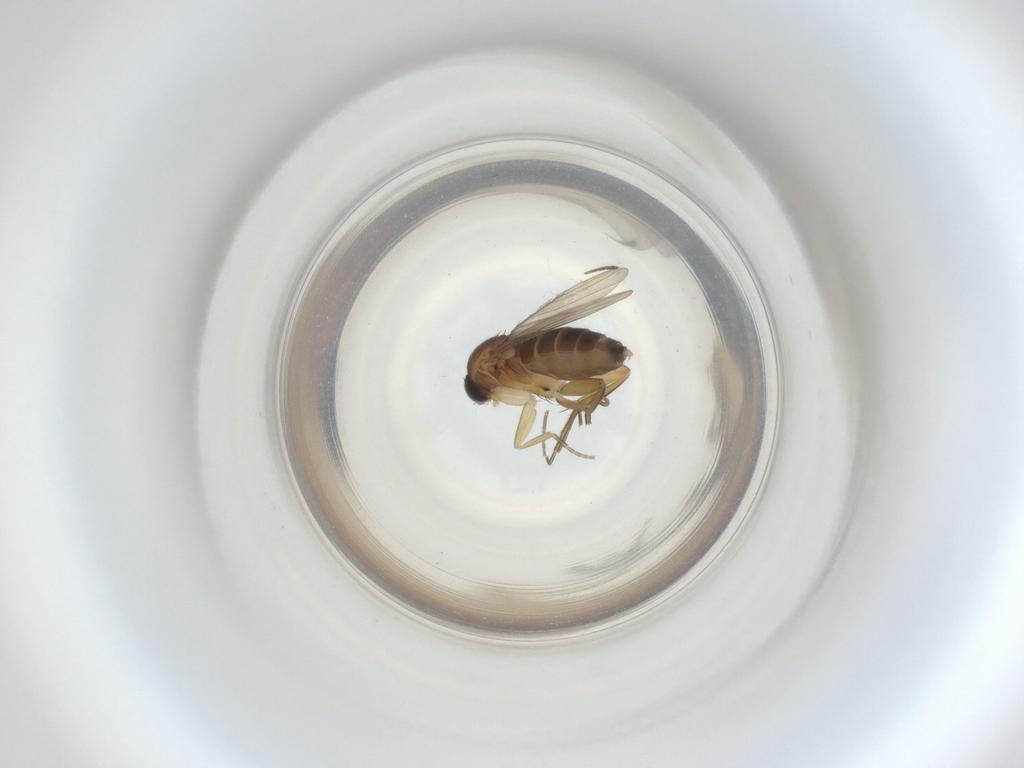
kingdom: Animalia
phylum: Arthropoda
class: Insecta
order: Diptera
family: Phoridae
